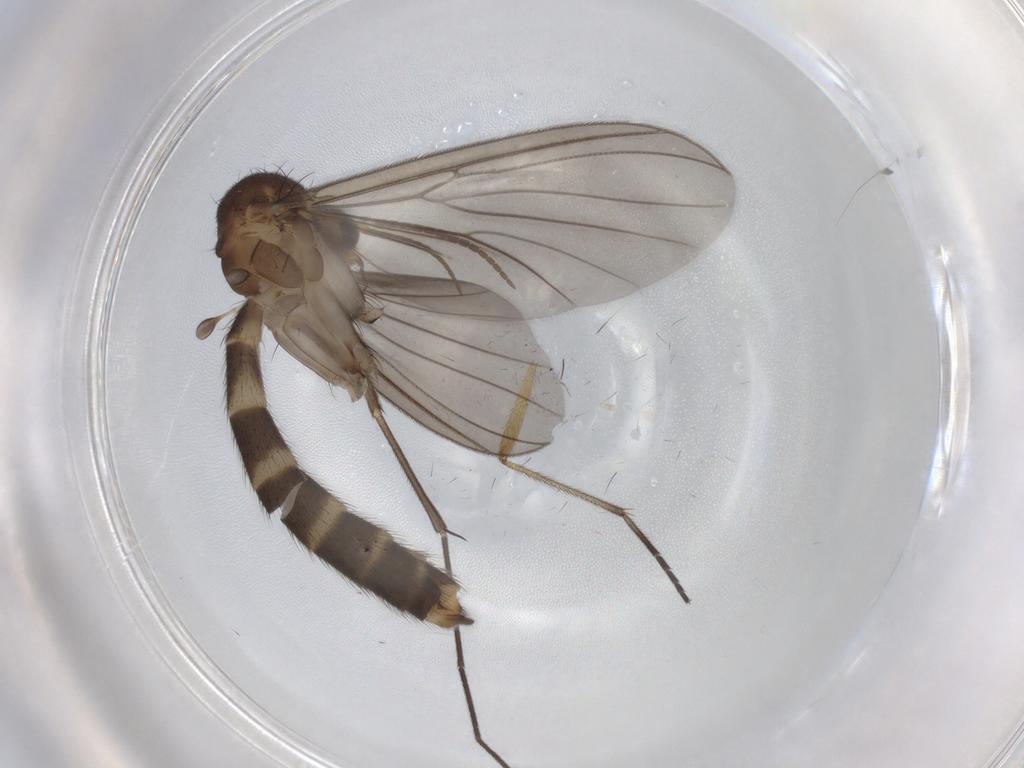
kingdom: Animalia
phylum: Arthropoda
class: Insecta
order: Diptera
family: Mycetophilidae
